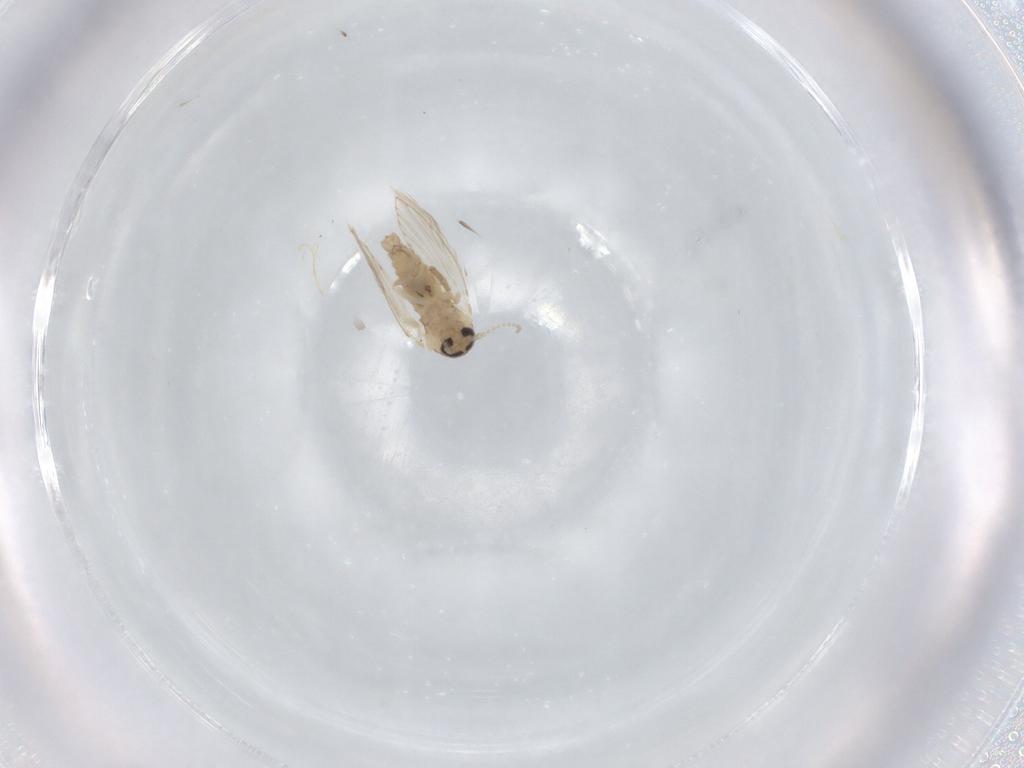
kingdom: Animalia
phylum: Arthropoda
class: Insecta
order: Diptera
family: Psychodidae
